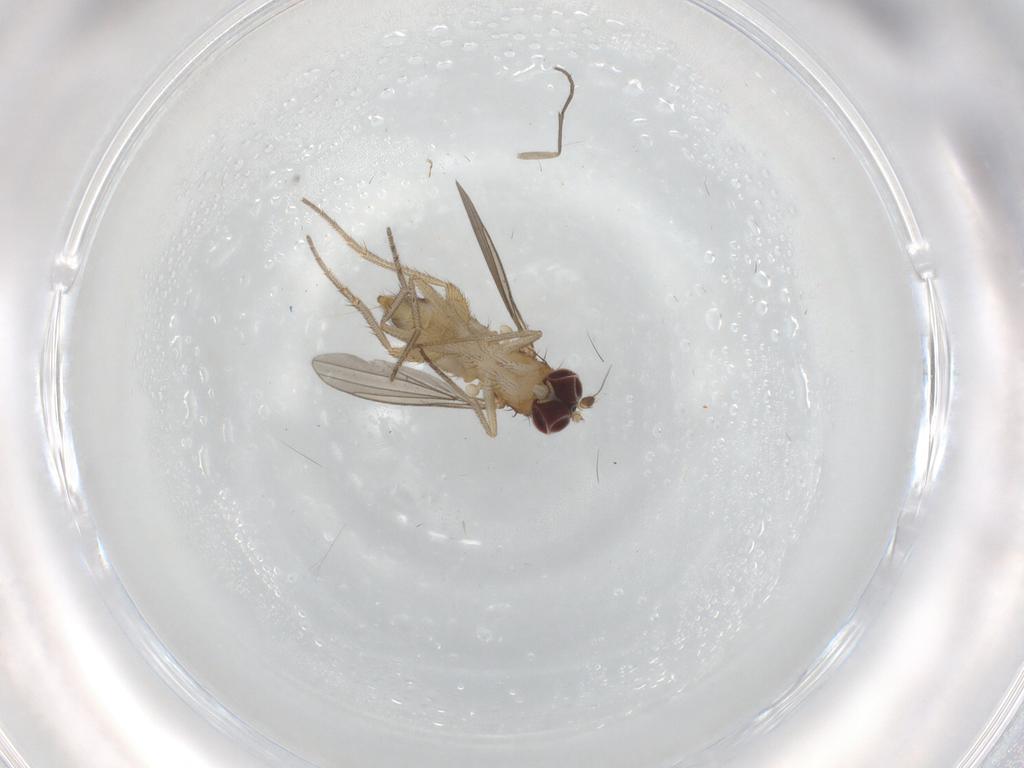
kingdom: Animalia
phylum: Arthropoda
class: Insecta
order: Diptera
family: Dolichopodidae
